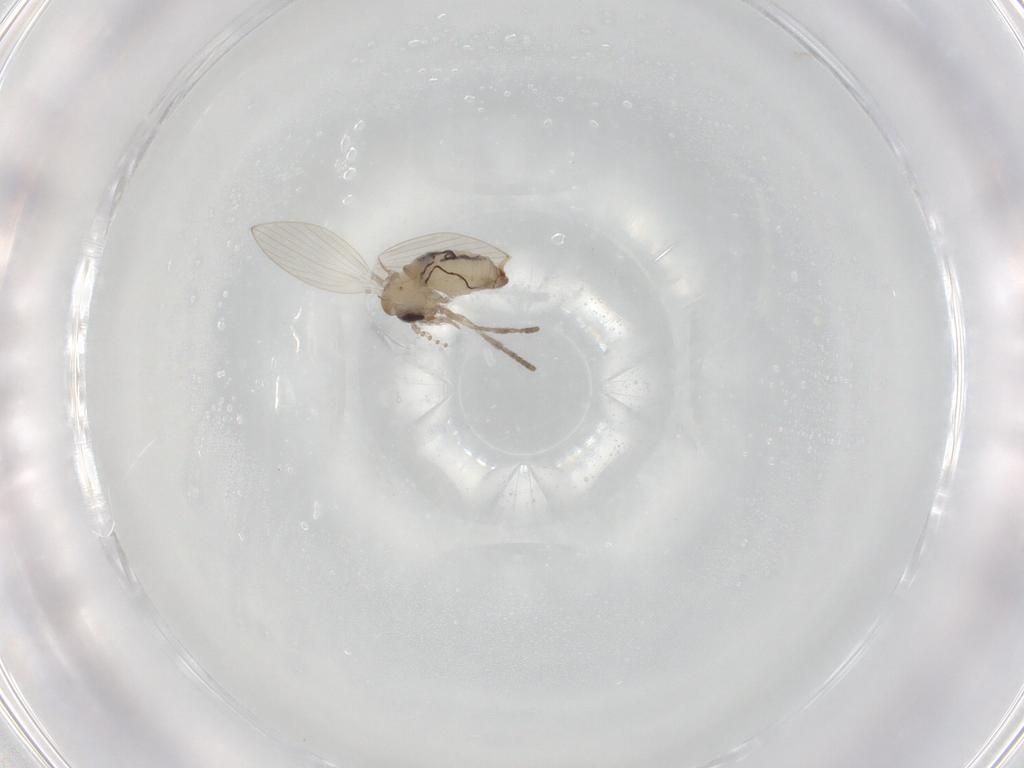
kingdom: Animalia
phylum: Arthropoda
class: Insecta
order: Diptera
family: Psychodidae
